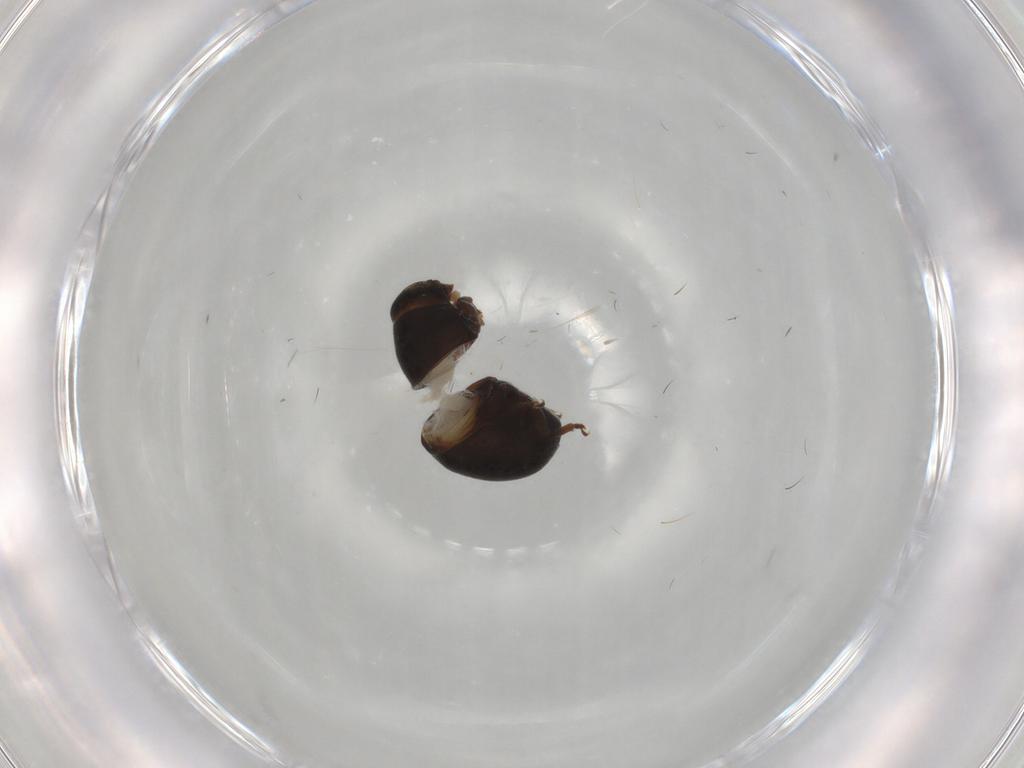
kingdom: Animalia
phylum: Arthropoda
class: Insecta
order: Coleoptera
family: Anthribidae
